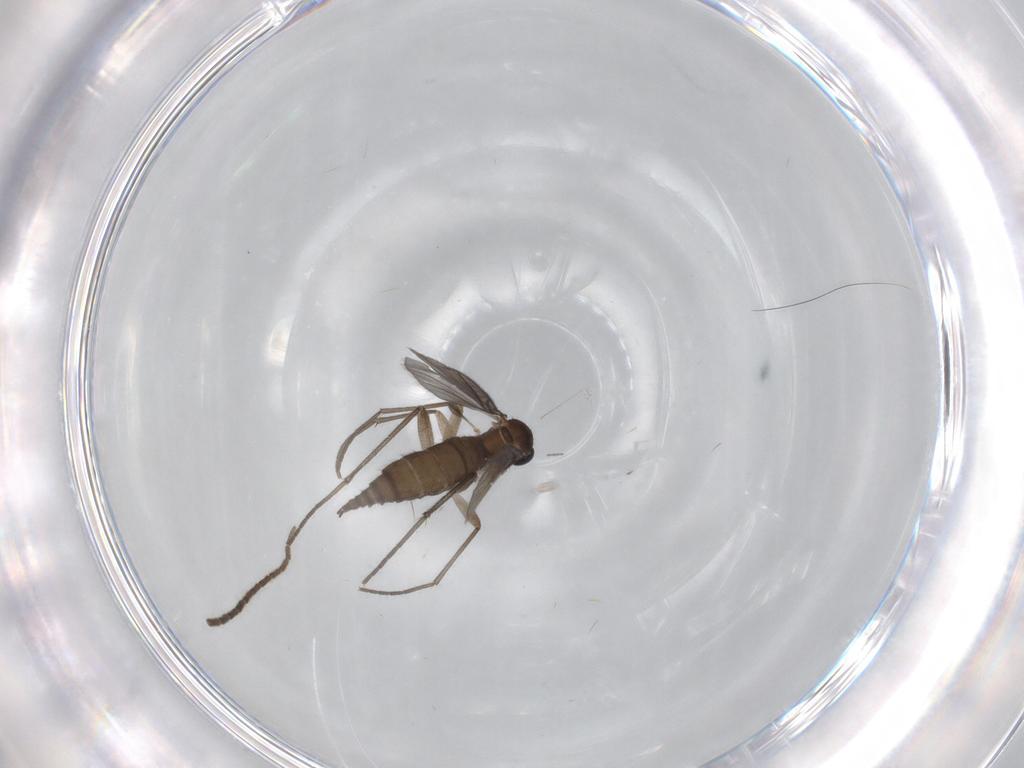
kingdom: Animalia
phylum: Arthropoda
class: Insecta
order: Diptera
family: Sciaridae
